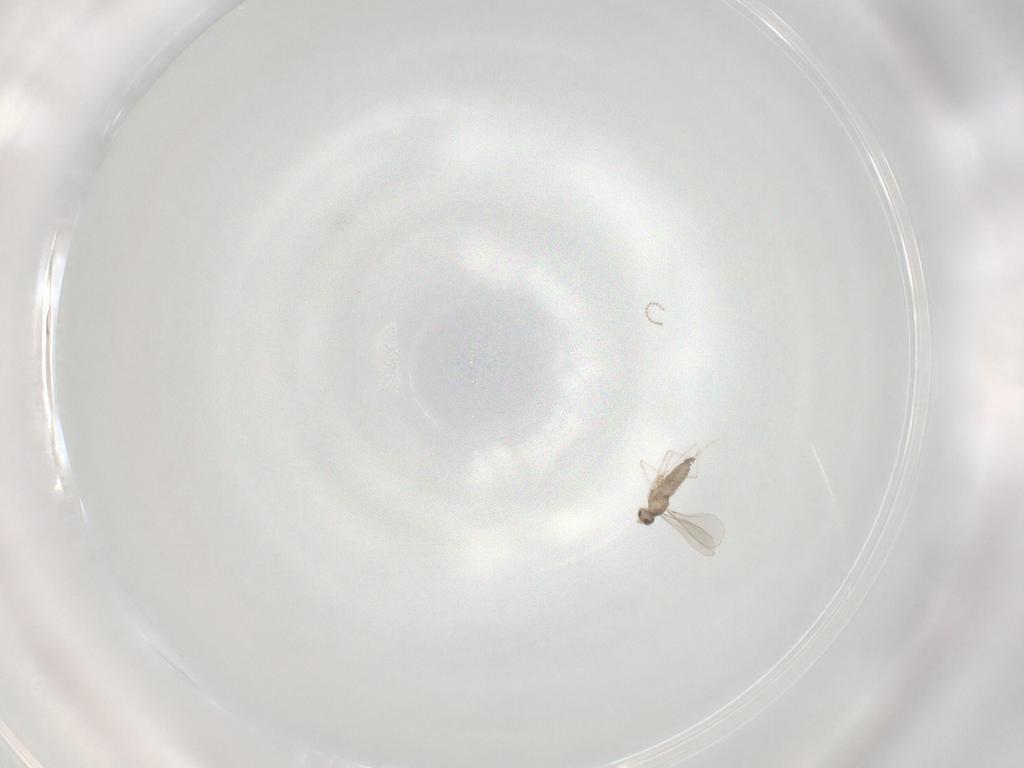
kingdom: Animalia
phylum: Arthropoda
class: Insecta
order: Diptera
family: Cecidomyiidae
